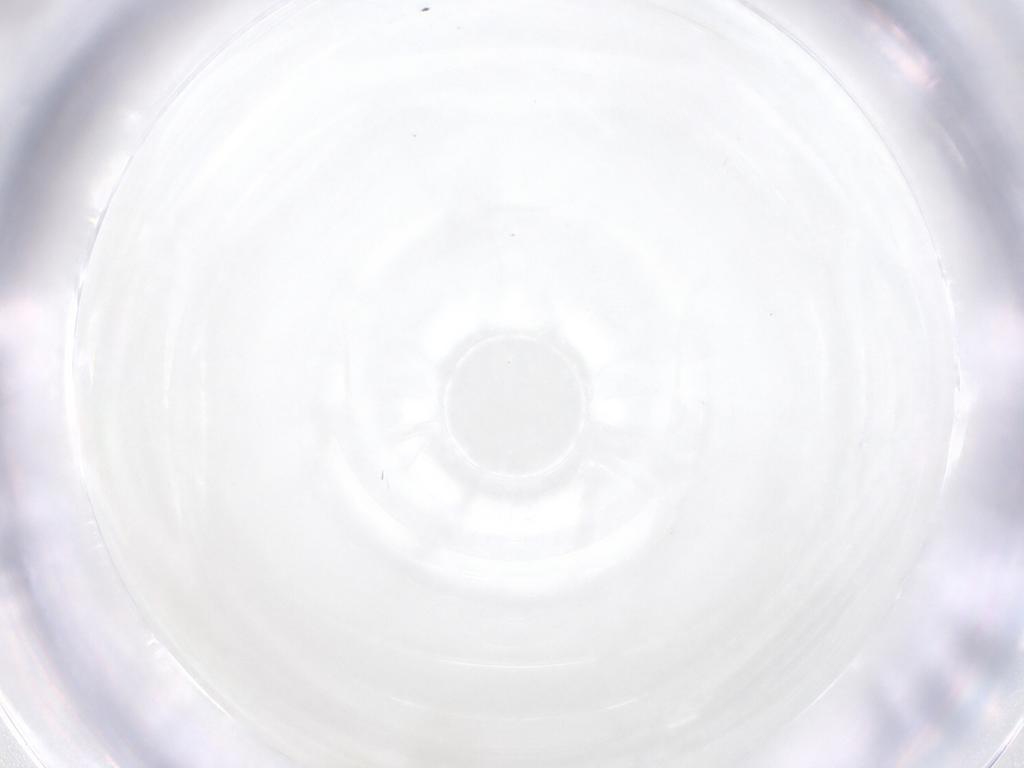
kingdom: Animalia
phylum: Arthropoda
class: Insecta
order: Hymenoptera
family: Mymaridae
